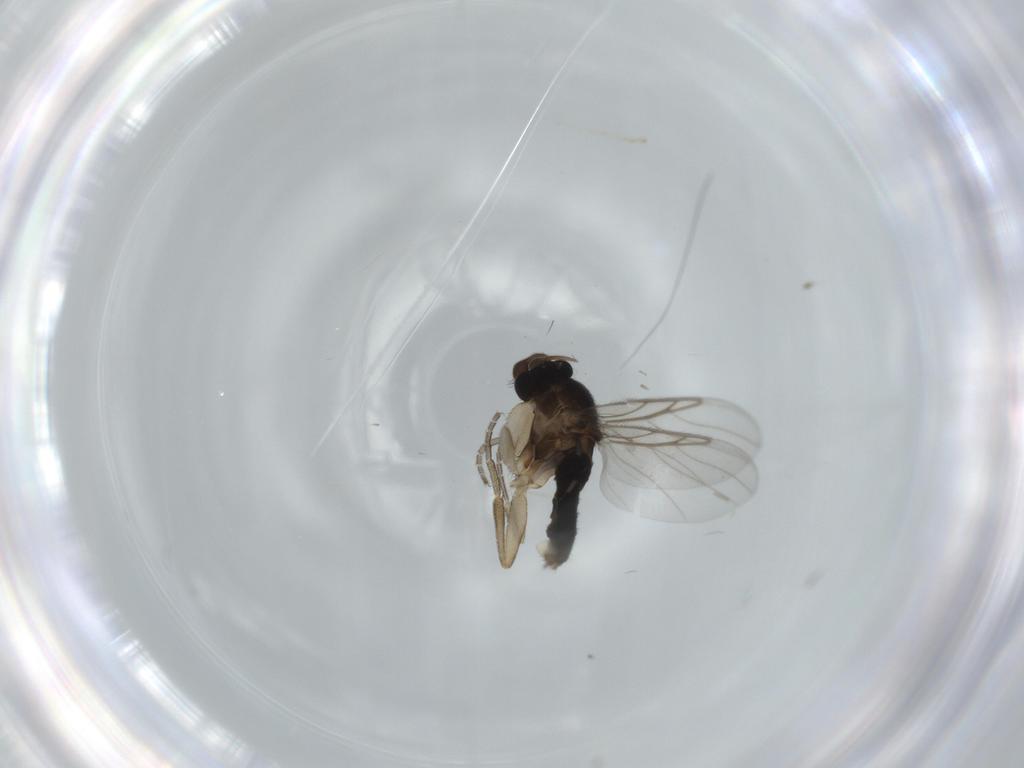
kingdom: Animalia
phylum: Arthropoda
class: Insecta
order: Diptera
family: Phoridae
